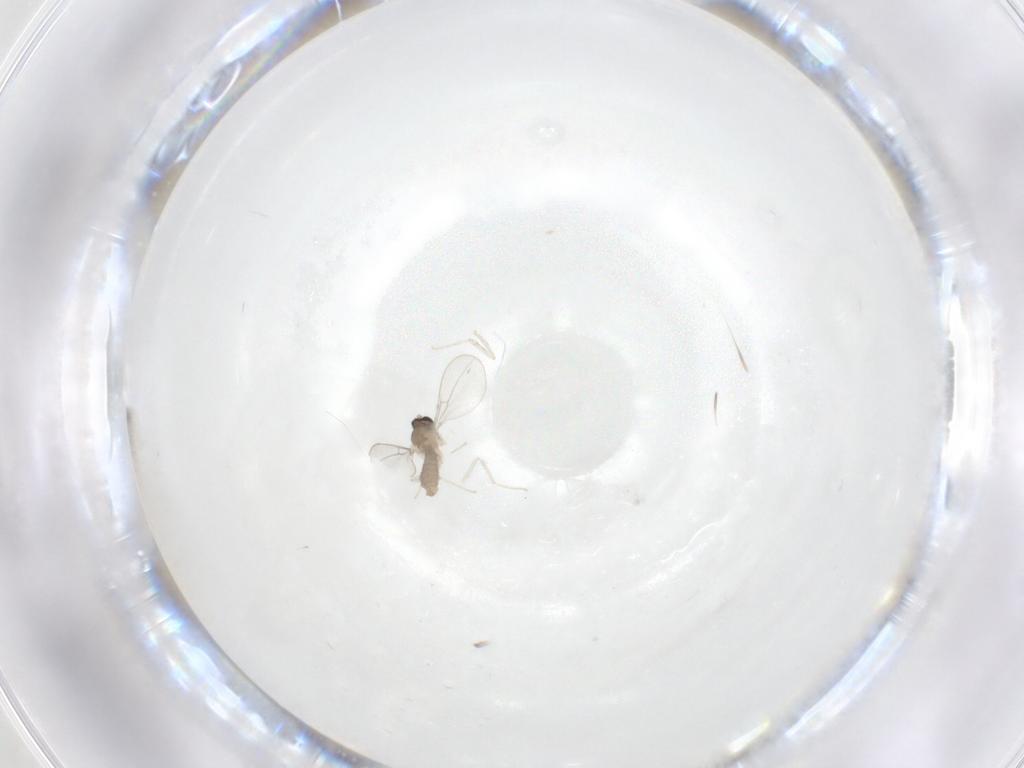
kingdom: Animalia
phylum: Arthropoda
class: Insecta
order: Diptera
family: Cecidomyiidae
